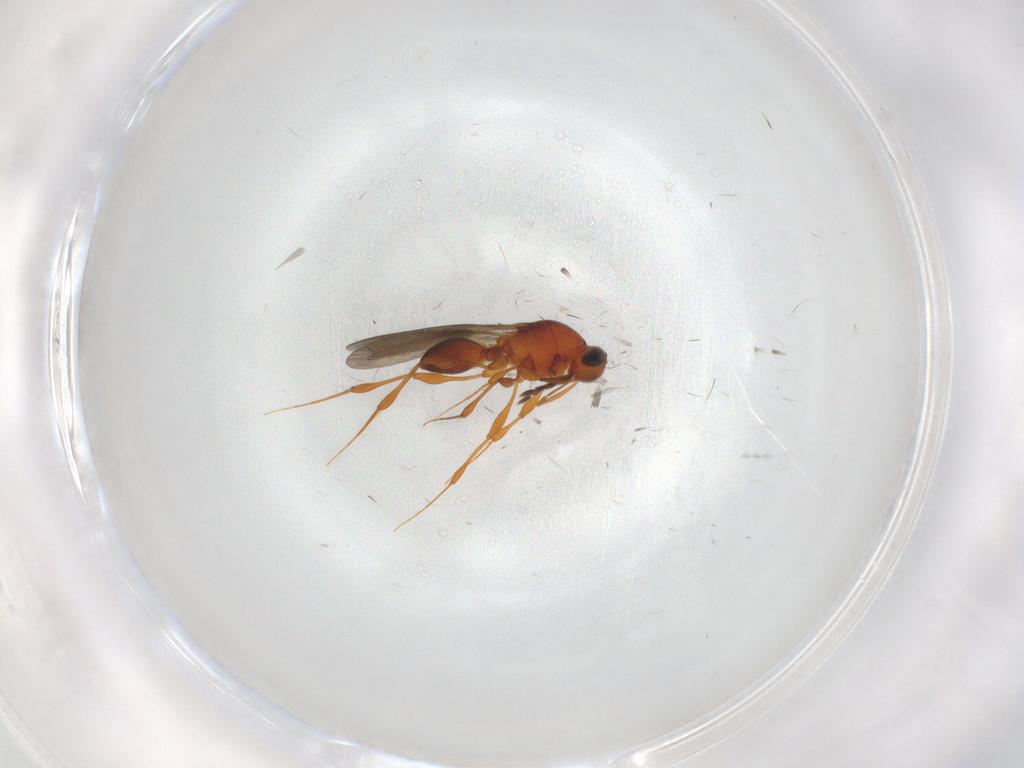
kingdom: Animalia
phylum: Arthropoda
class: Insecta
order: Hymenoptera
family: Platygastridae
